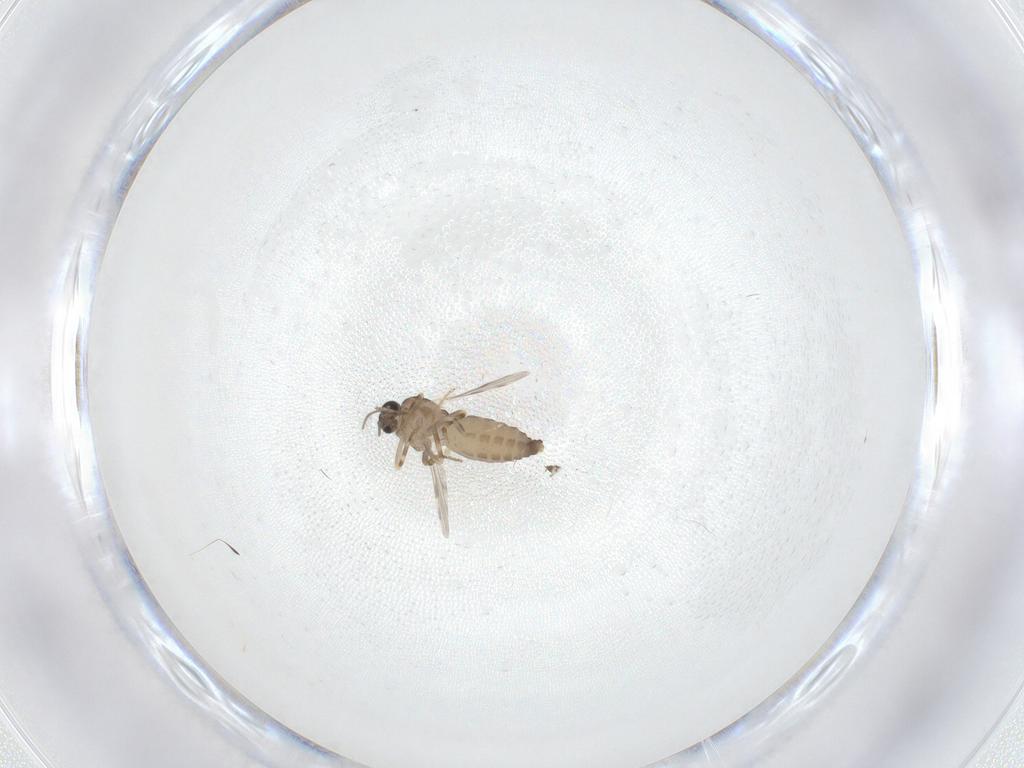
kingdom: Animalia
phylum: Arthropoda
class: Insecta
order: Diptera
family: Ceratopogonidae
